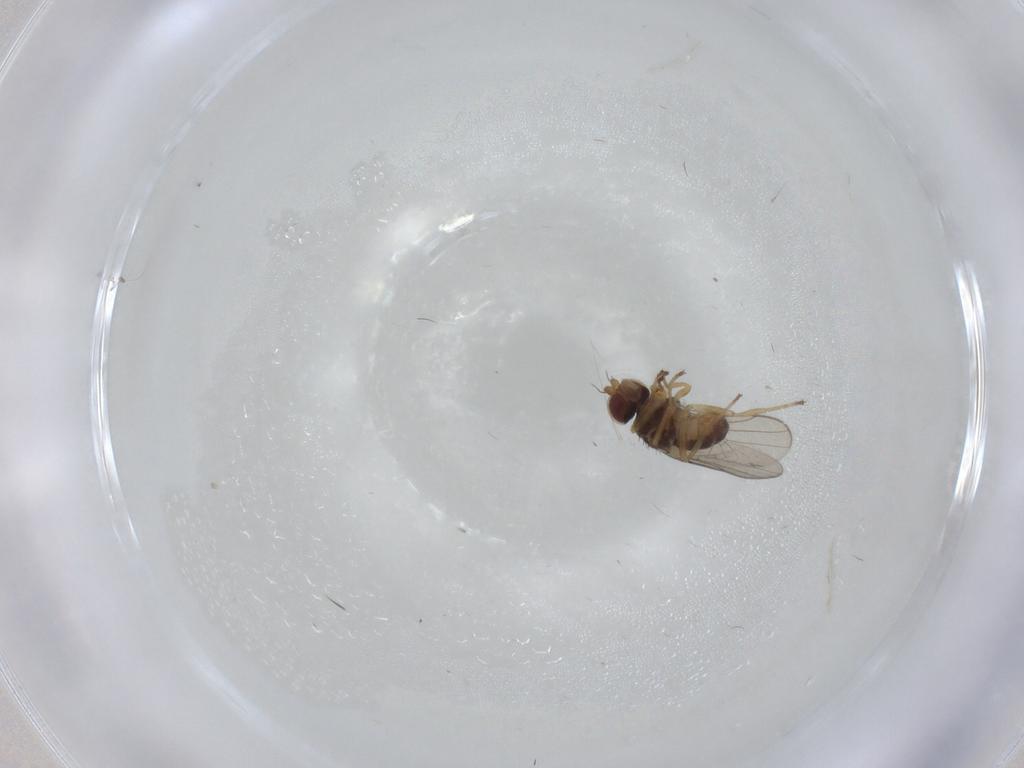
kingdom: Animalia
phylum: Arthropoda
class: Insecta
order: Diptera
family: Chloropidae
